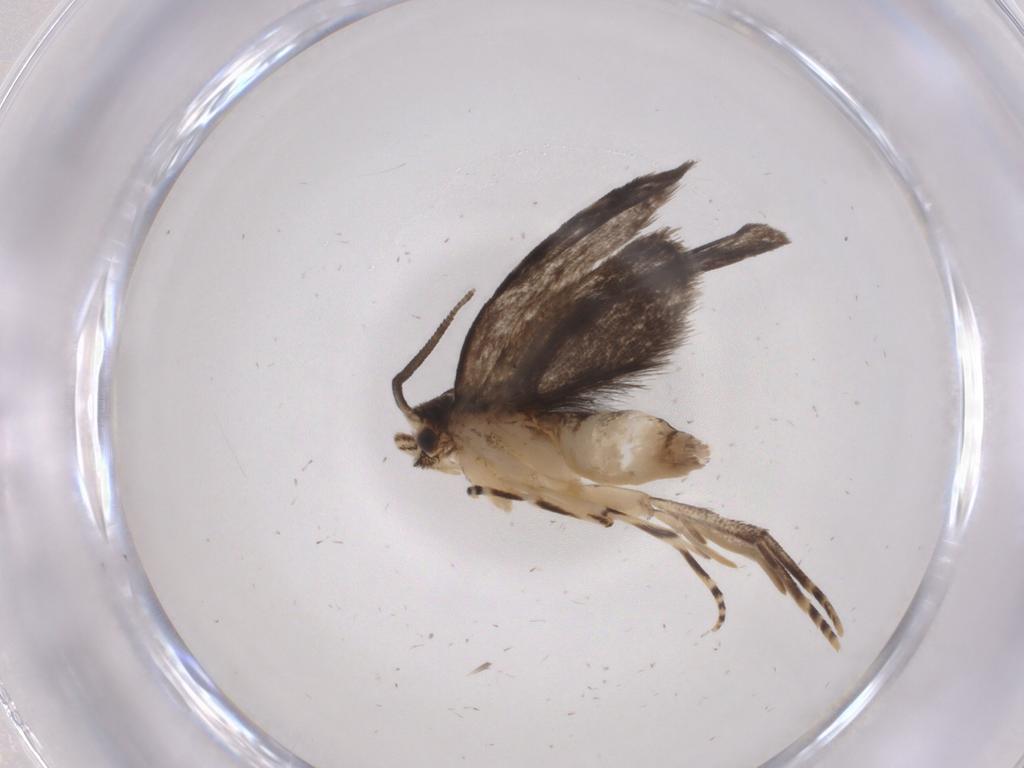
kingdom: Animalia
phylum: Arthropoda
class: Insecta
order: Lepidoptera
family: Dryadaulidae
